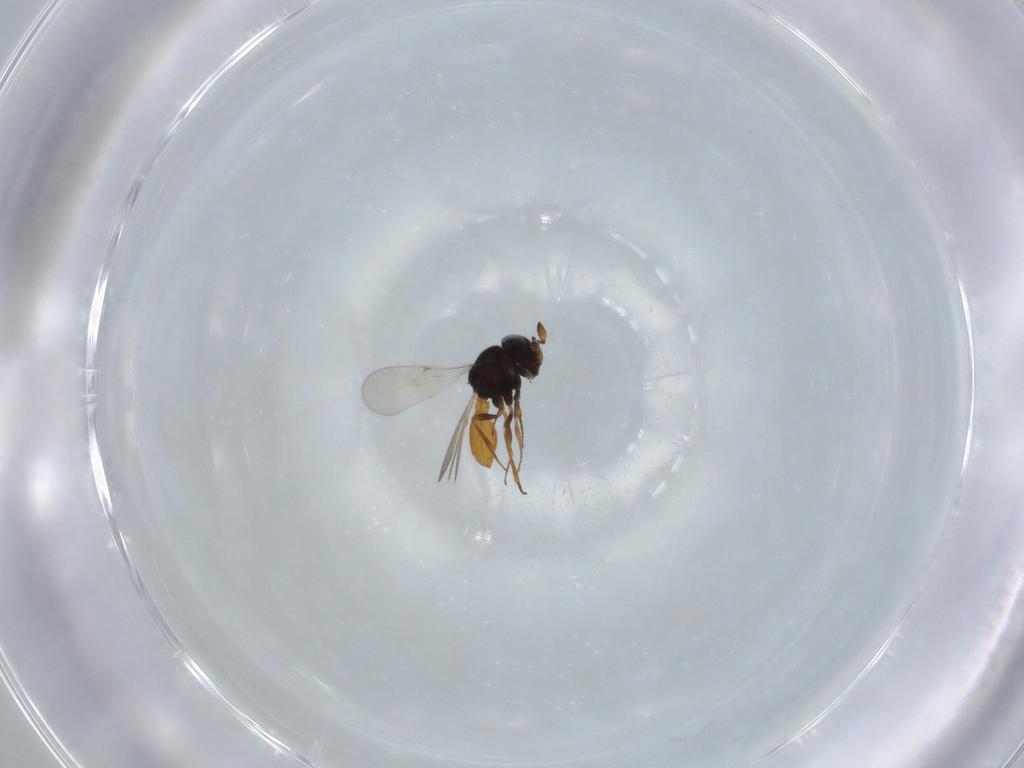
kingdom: Animalia
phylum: Arthropoda
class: Insecta
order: Hymenoptera
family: Scelionidae
